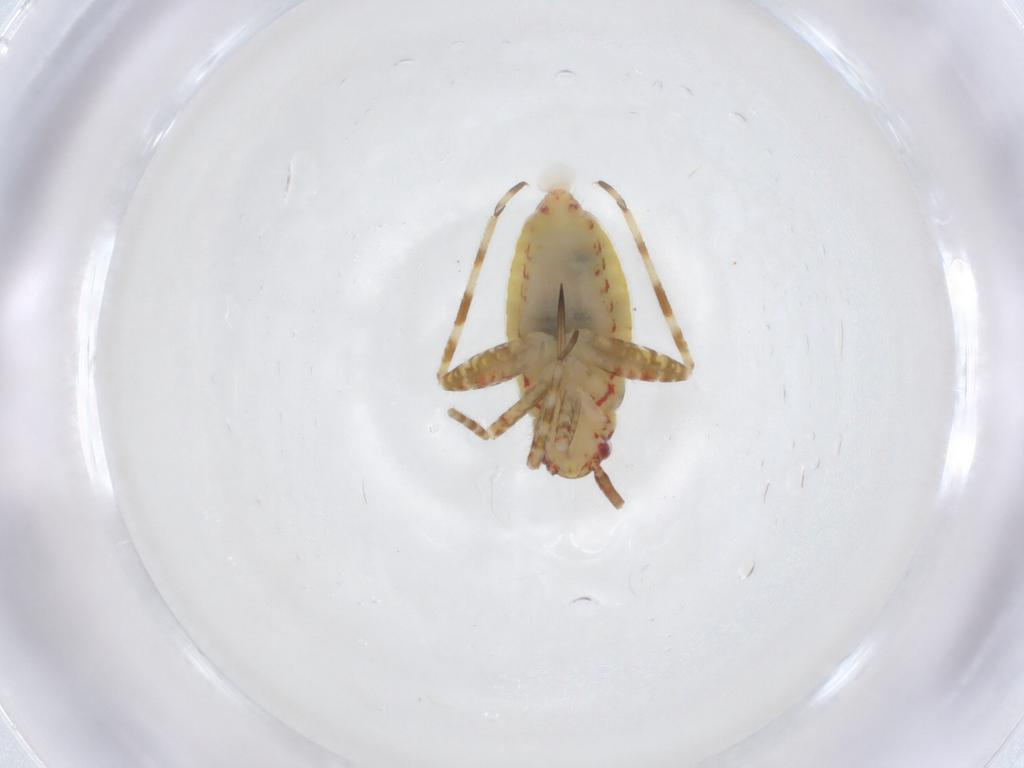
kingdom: Animalia
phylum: Arthropoda
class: Insecta
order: Hemiptera
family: Miridae
